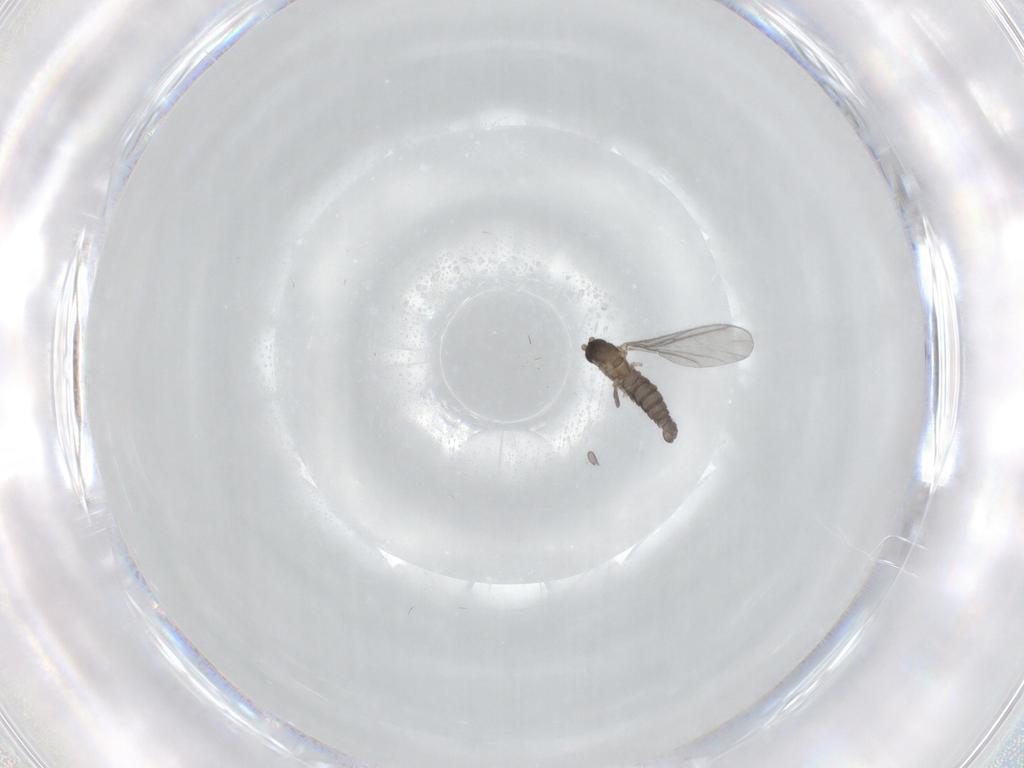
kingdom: Animalia
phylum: Arthropoda
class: Insecta
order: Diptera
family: Sciaridae
